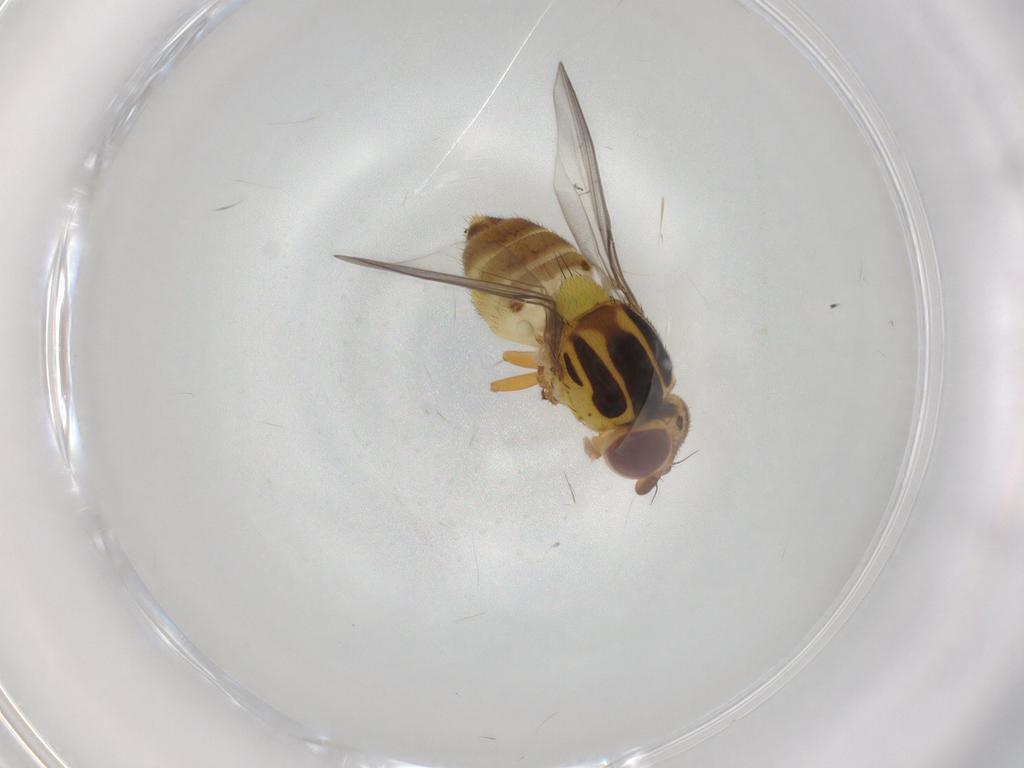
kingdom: Animalia
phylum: Arthropoda
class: Insecta
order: Diptera
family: Chloropidae
